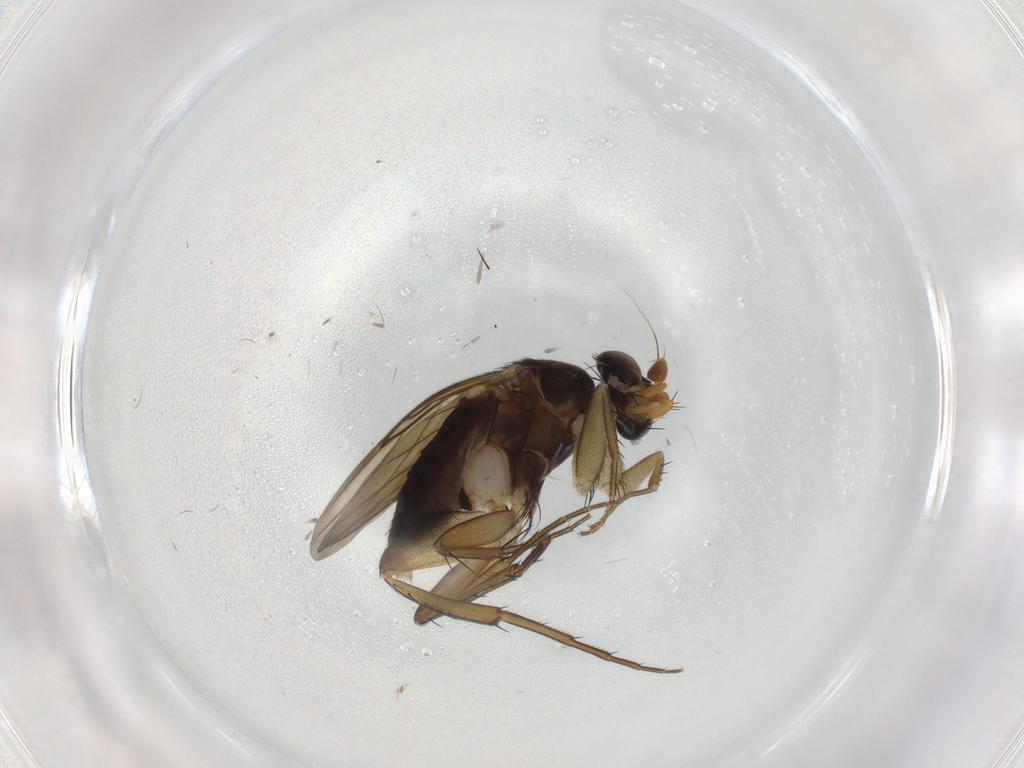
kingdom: Animalia
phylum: Arthropoda
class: Insecta
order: Diptera
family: Phoridae
